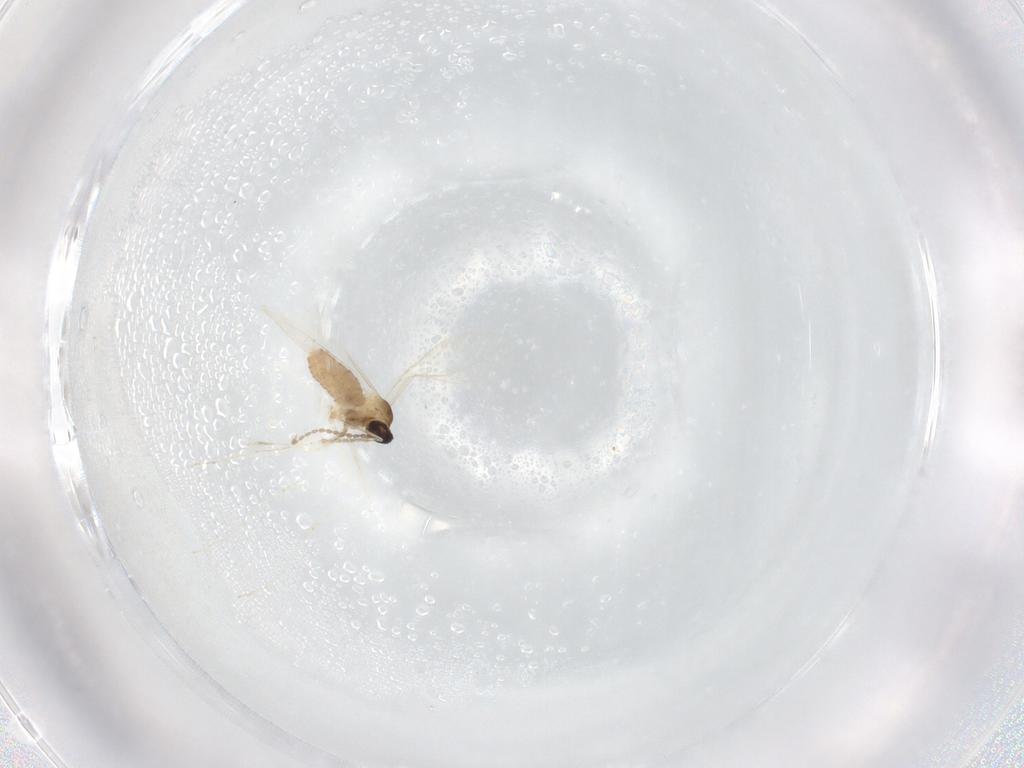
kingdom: Animalia
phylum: Arthropoda
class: Insecta
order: Diptera
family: Cecidomyiidae
